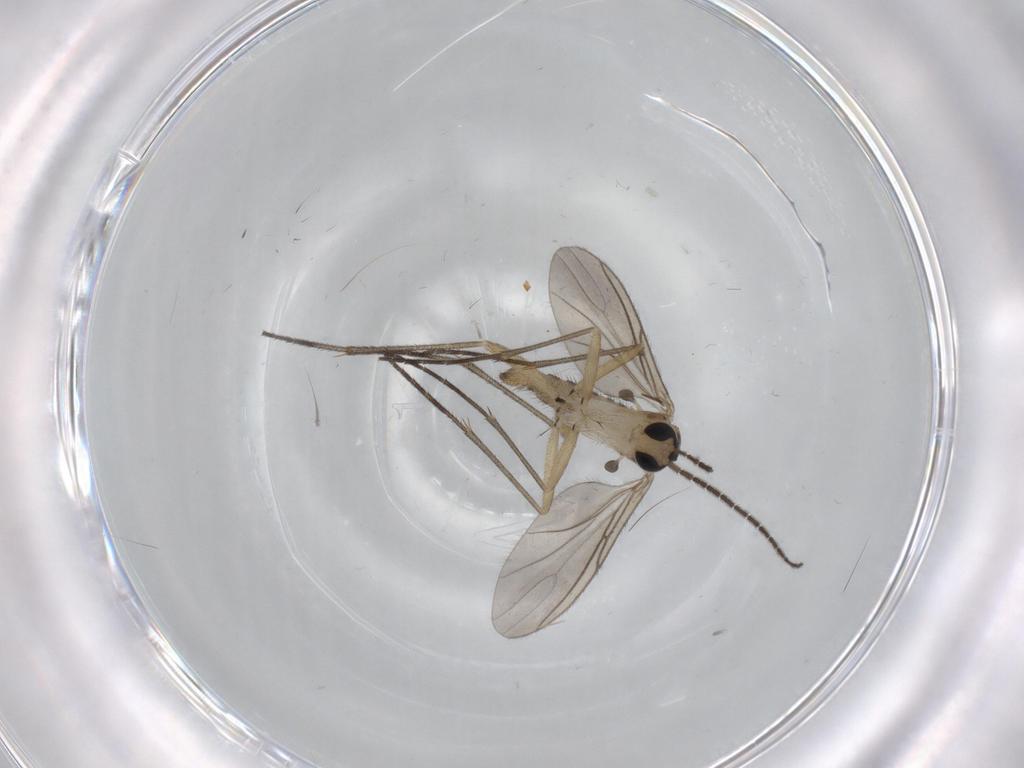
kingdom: Animalia
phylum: Arthropoda
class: Insecta
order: Diptera
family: Sciaridae
